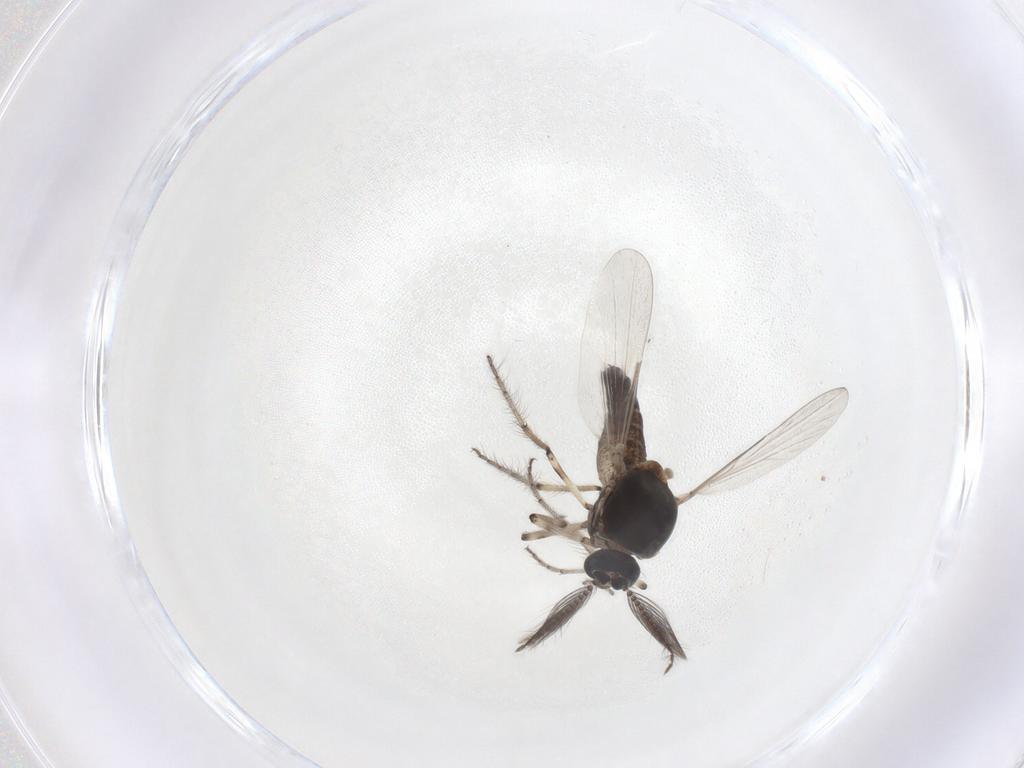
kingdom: Animalia
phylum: Arthropoda
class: Insecta
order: Diptera
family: Ceratopogonidae
